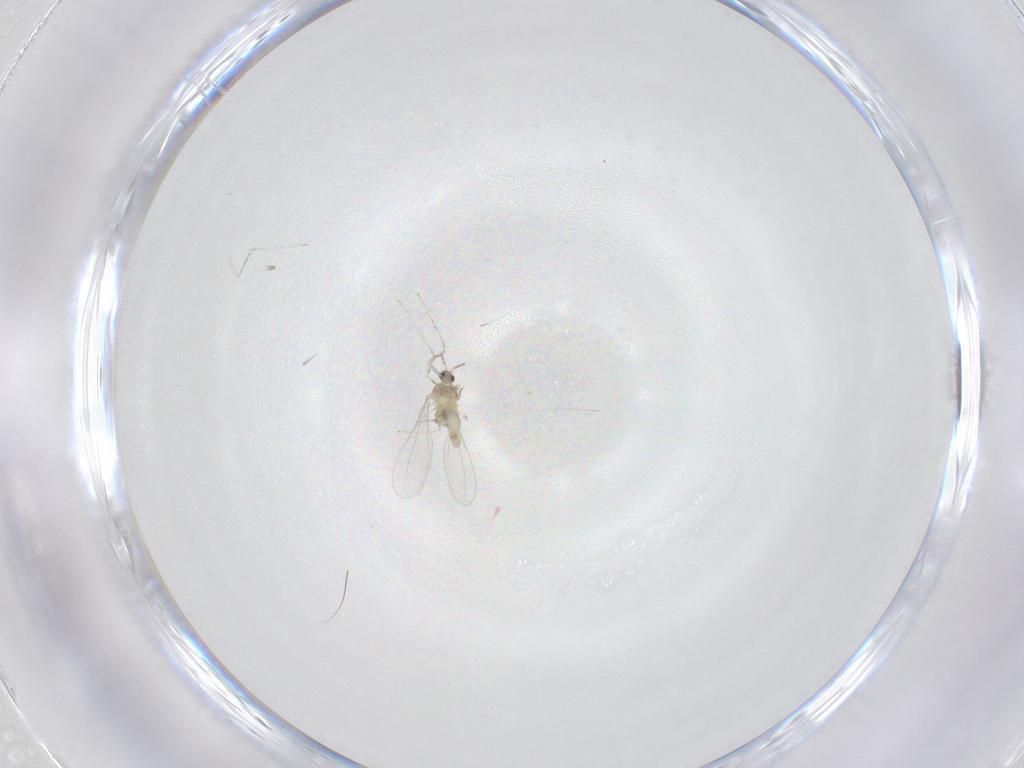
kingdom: Animalia
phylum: Arthropoda
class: Insecta
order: Diptera
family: Cecidomyiidae
